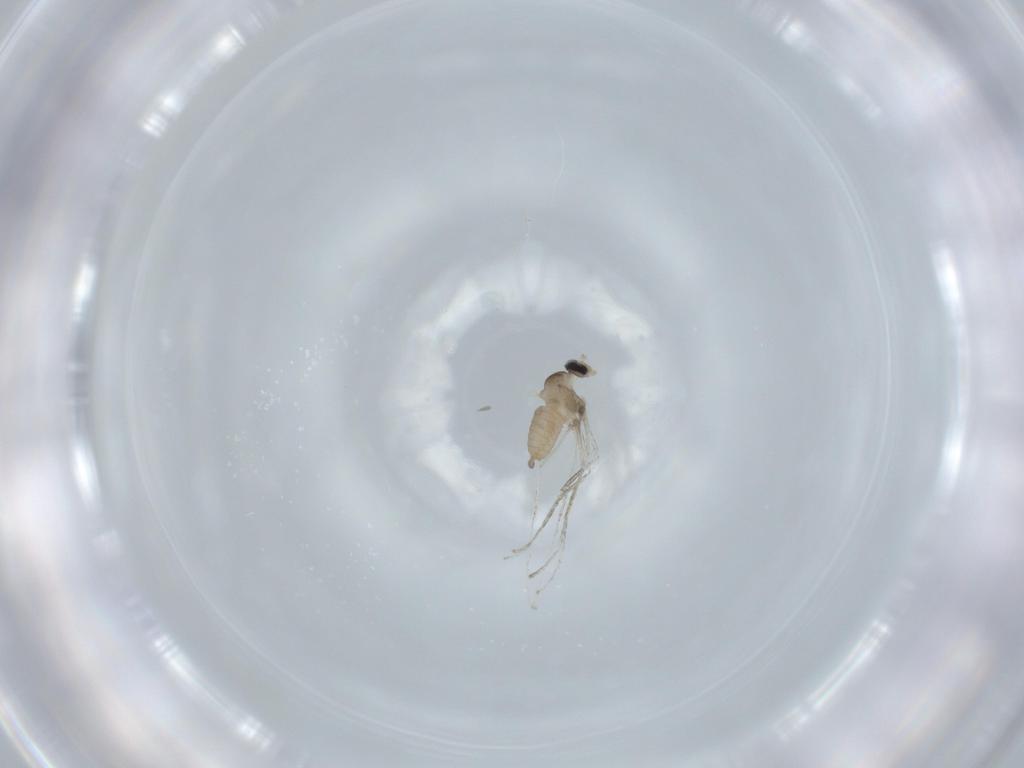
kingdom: Animalia
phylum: Arthropoda
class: Insecta
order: Diptera
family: Cecidomyiidae
